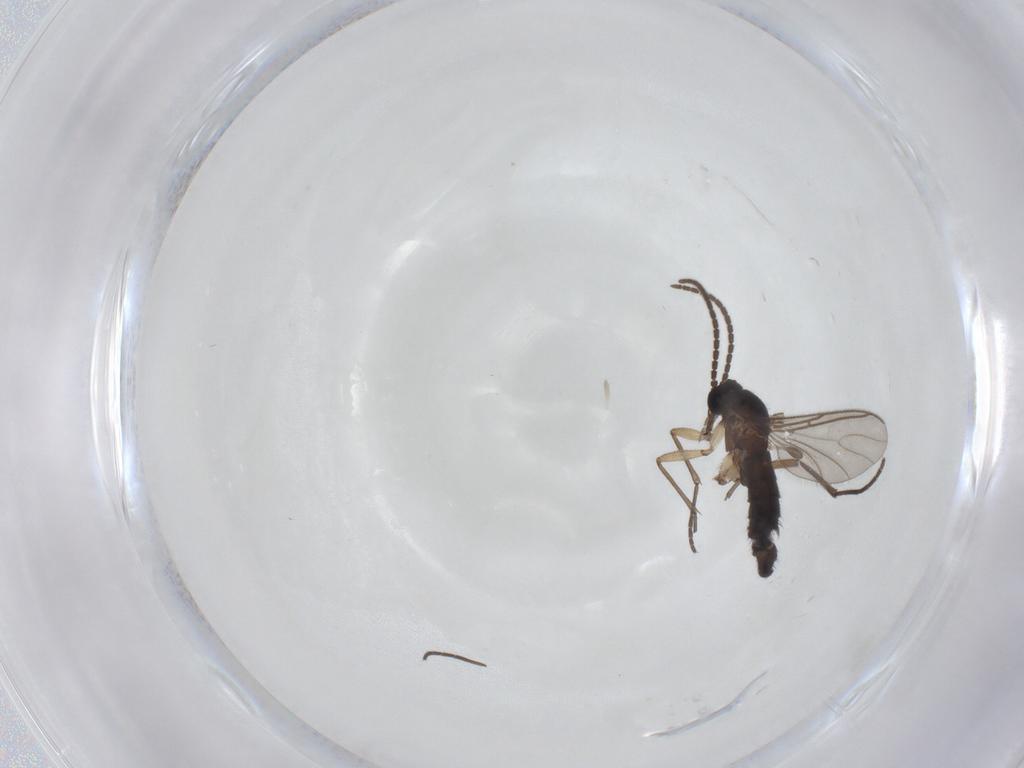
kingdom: Animalia
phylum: Arthropoda
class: Insecta
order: Diptera
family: Sciaridae
